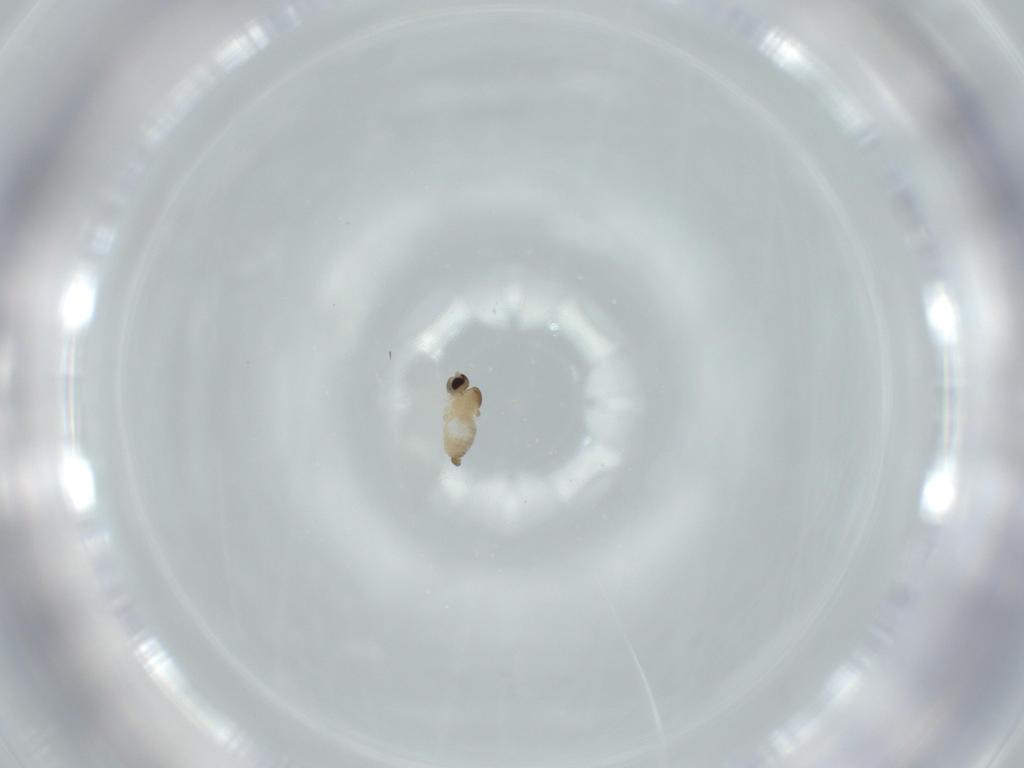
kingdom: Animalia
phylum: Arthropoda
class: Insecta
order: Diptera
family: Cecidomyiidae
